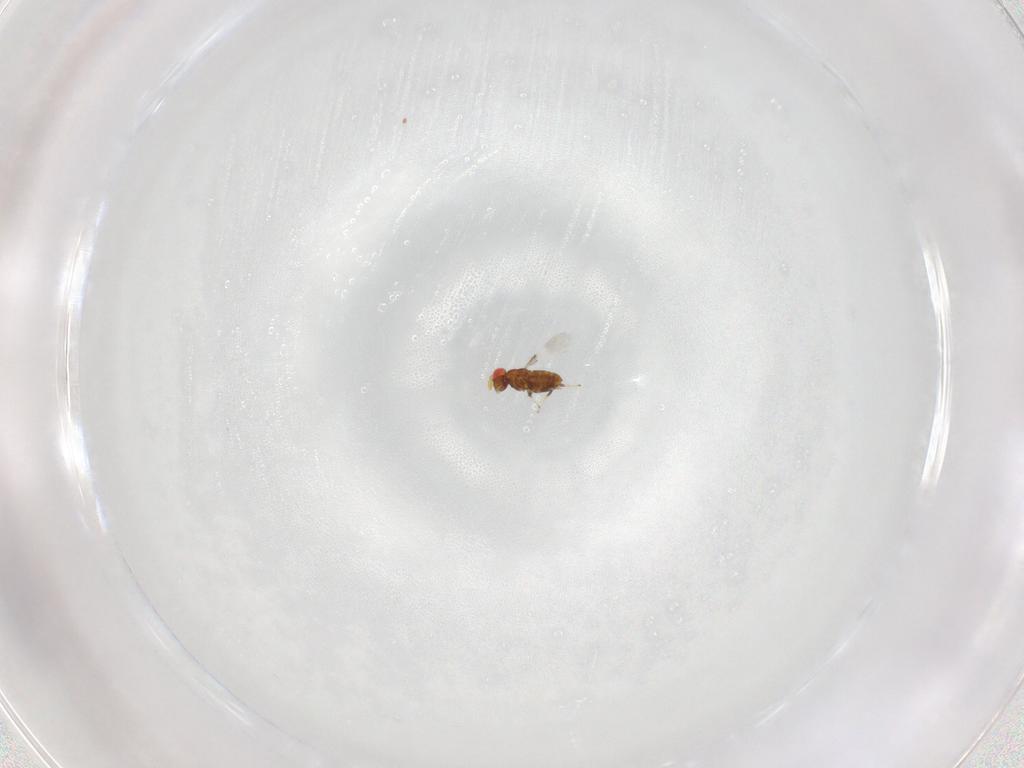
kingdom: Animalia
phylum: Arthropoda
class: Insecta
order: Hymenoptera
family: Trichogrammatidae
